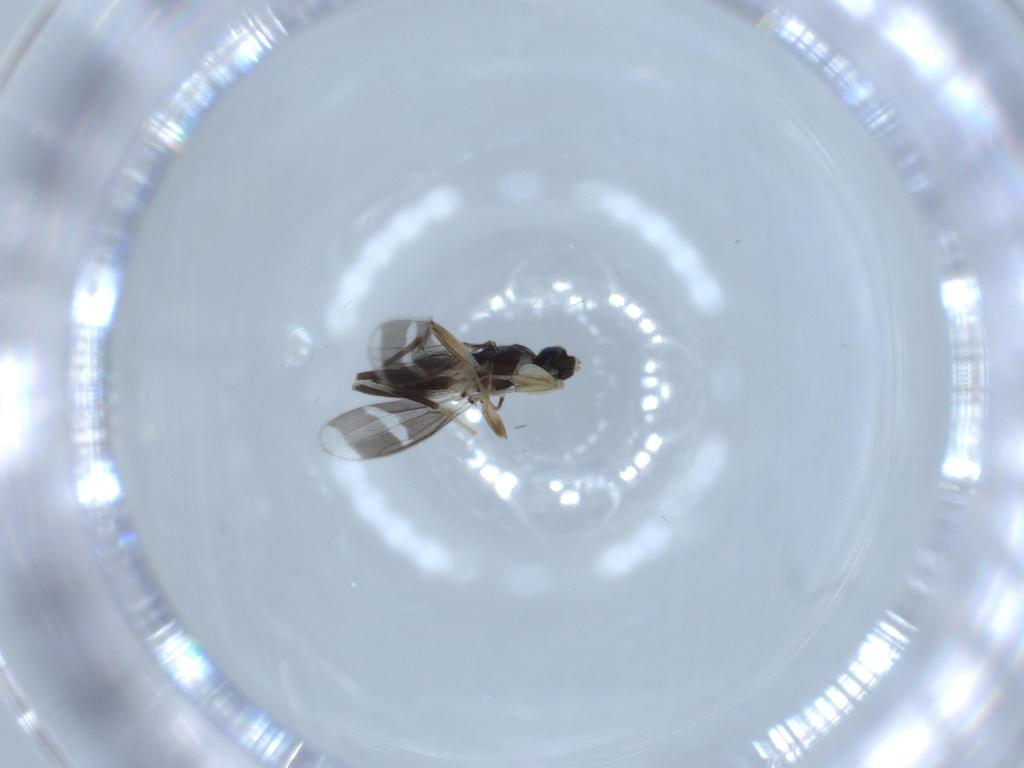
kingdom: Animalia
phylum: Arthropoda
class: Insecta
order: Diptera
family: Hybotidae
